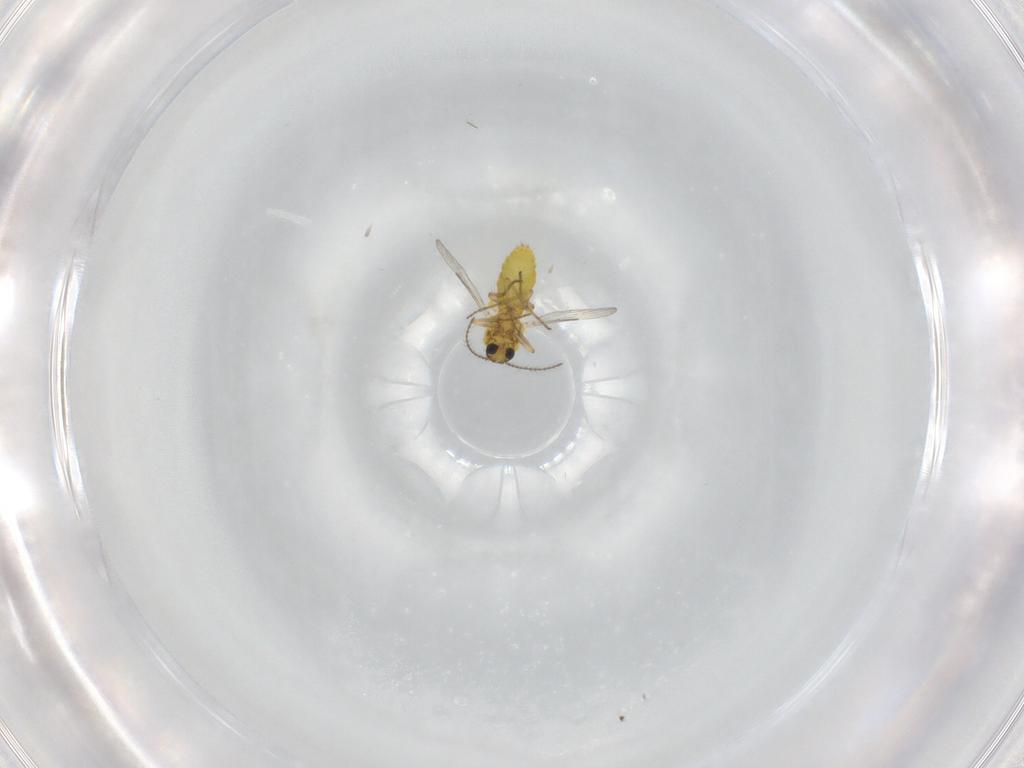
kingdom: Animalia
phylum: Arthropoda
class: Insecta
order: Diptera
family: Ceratopogonidae
